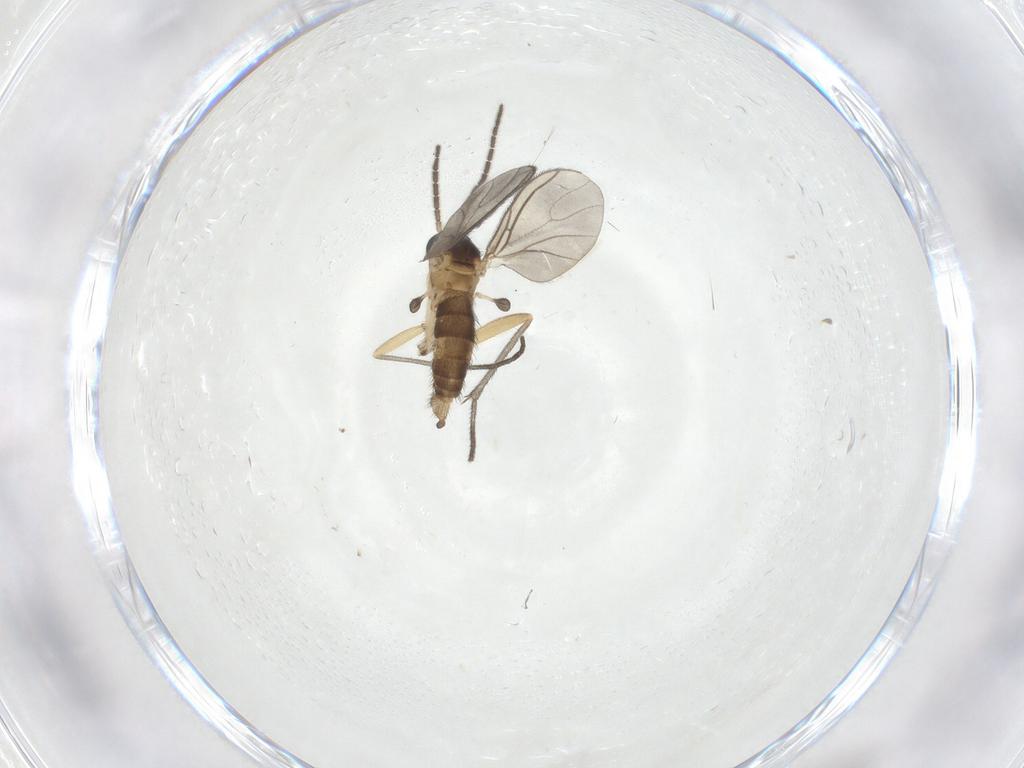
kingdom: Animalia
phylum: Arthropoda
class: Insecta
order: Diptera
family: Sciaridae
